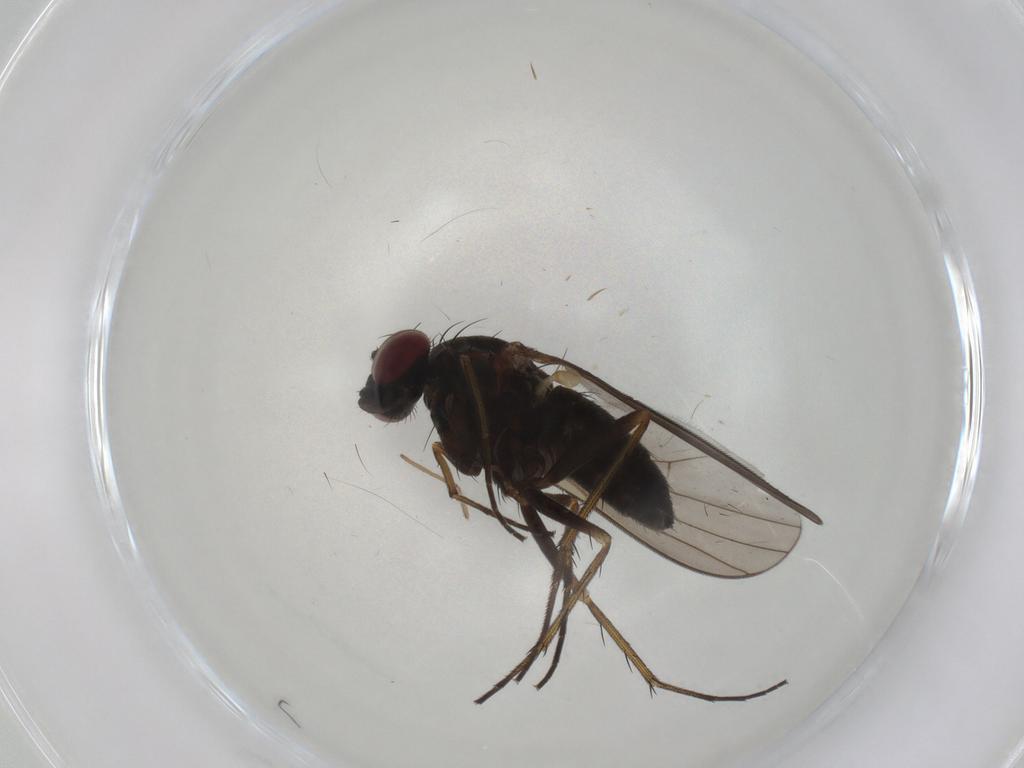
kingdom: Animalia
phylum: Arthropoda
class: Insecta
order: Diptera
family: Dolichopodidae
